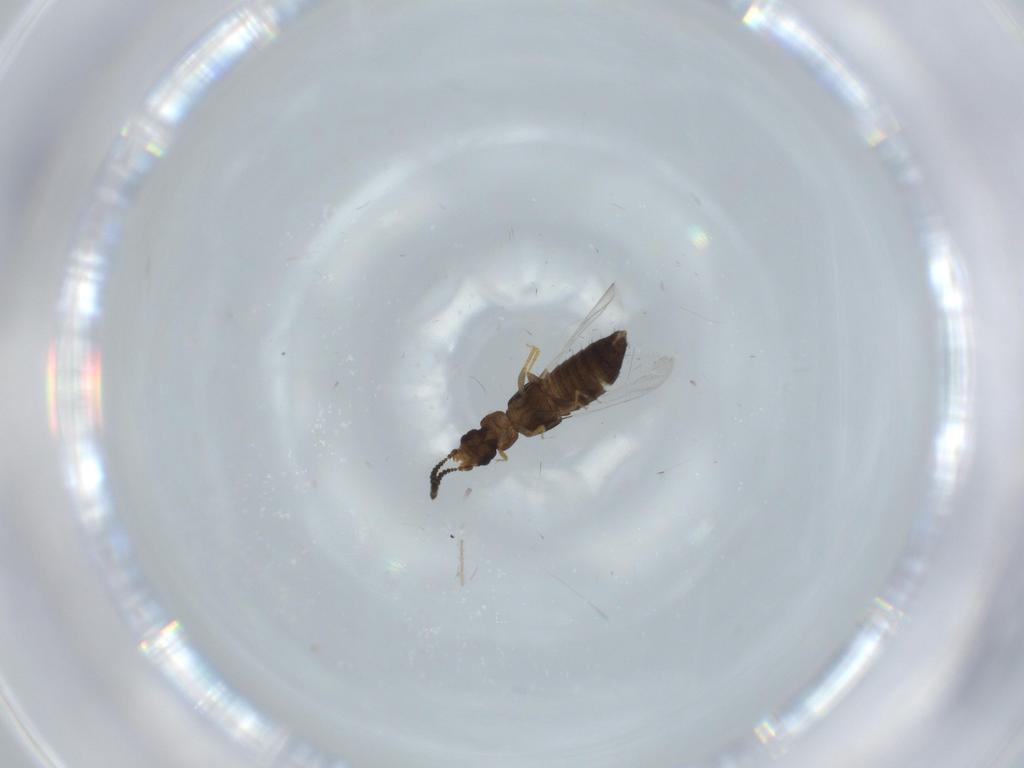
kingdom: Animalia
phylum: Arthropoda
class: Insecta
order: Coleoptera
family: Staphylinidae
